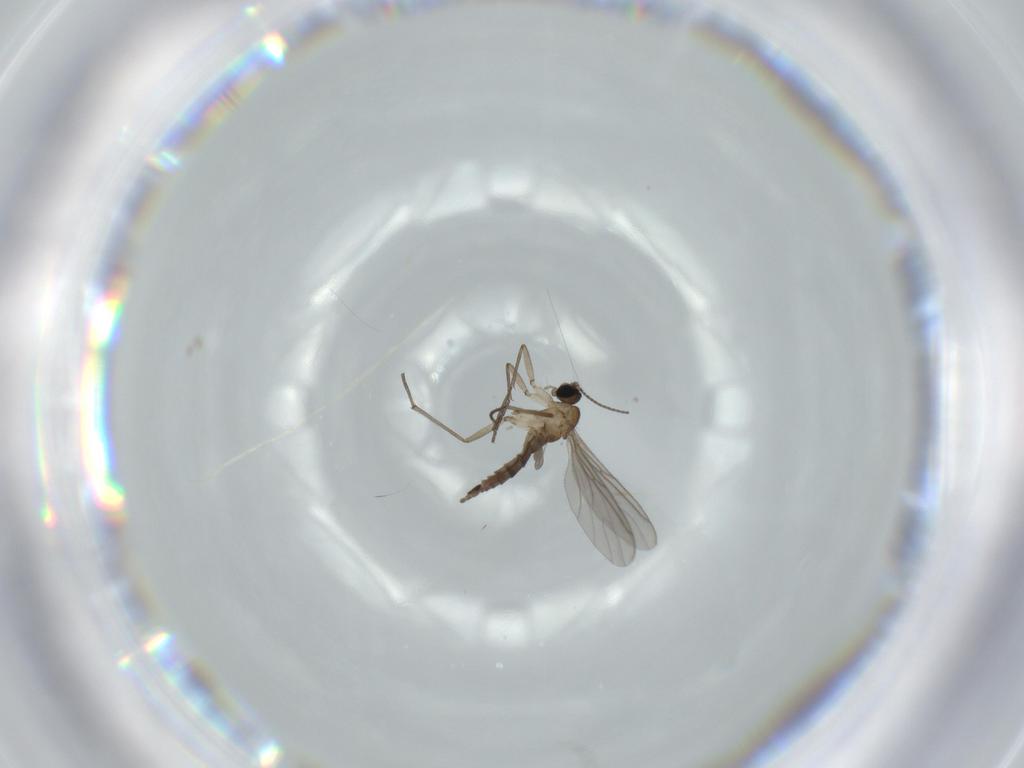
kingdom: Animalia
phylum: Arthropoda
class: Insecta
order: Diptera
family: Sciaridae
